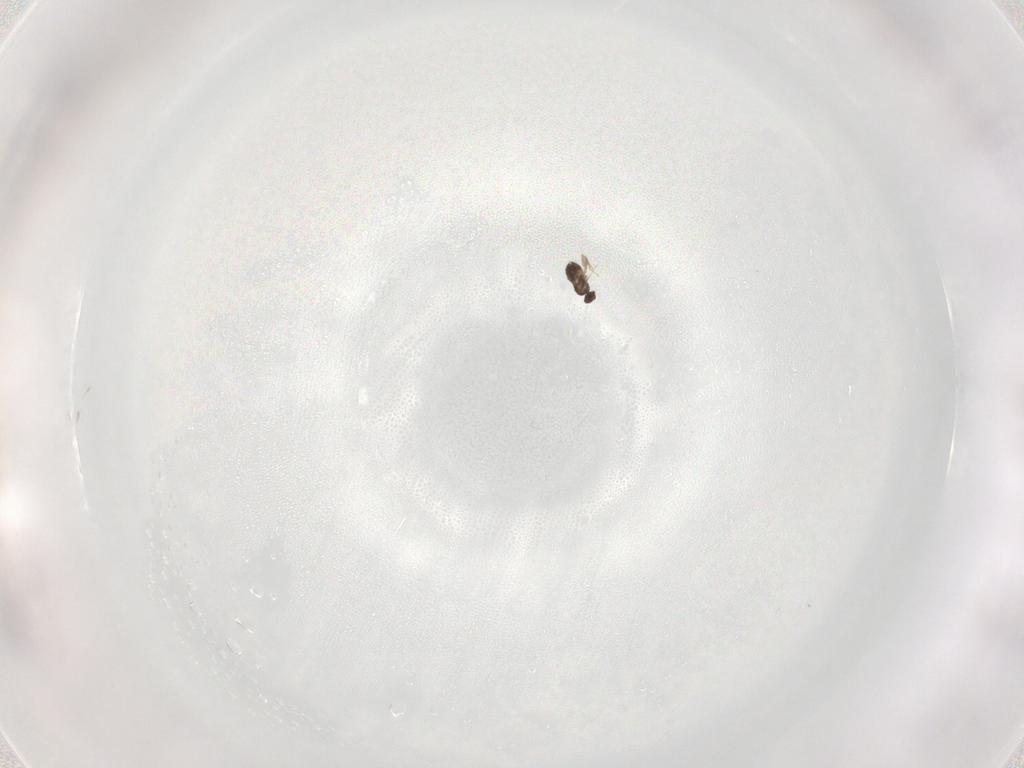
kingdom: Animalia
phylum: Arthropoda
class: Insecta
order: Hymenoptera
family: Mymaridae
